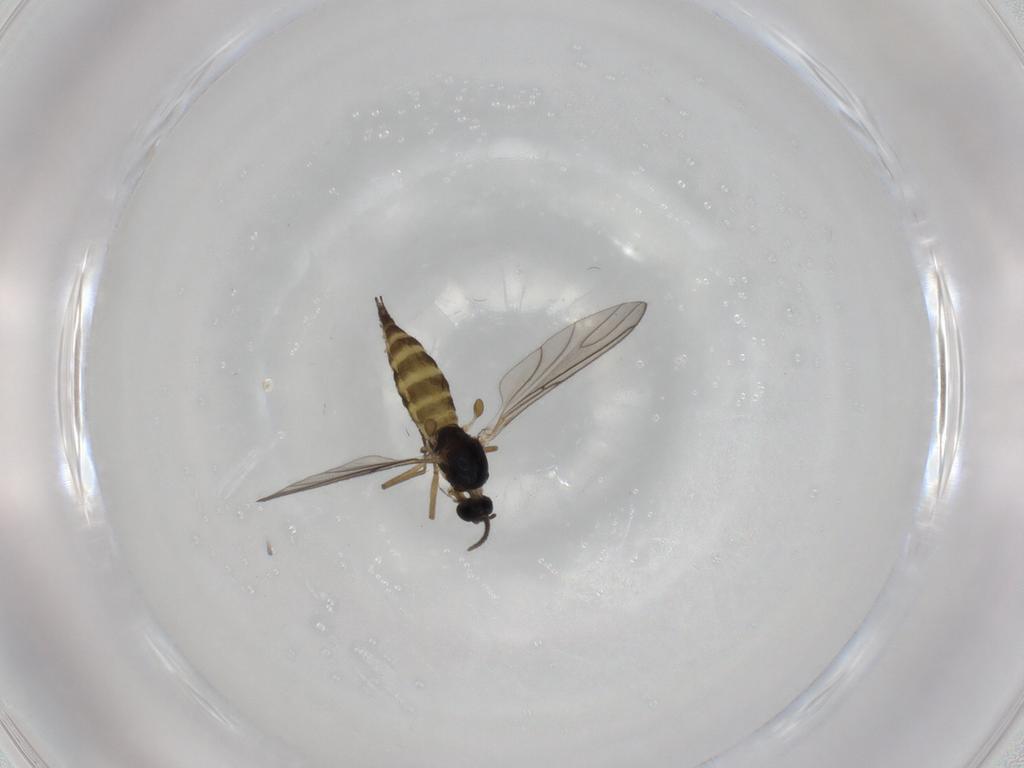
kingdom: Animalia
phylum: Arthropoda
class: Insecta
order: Diptera
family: Sciaridae
